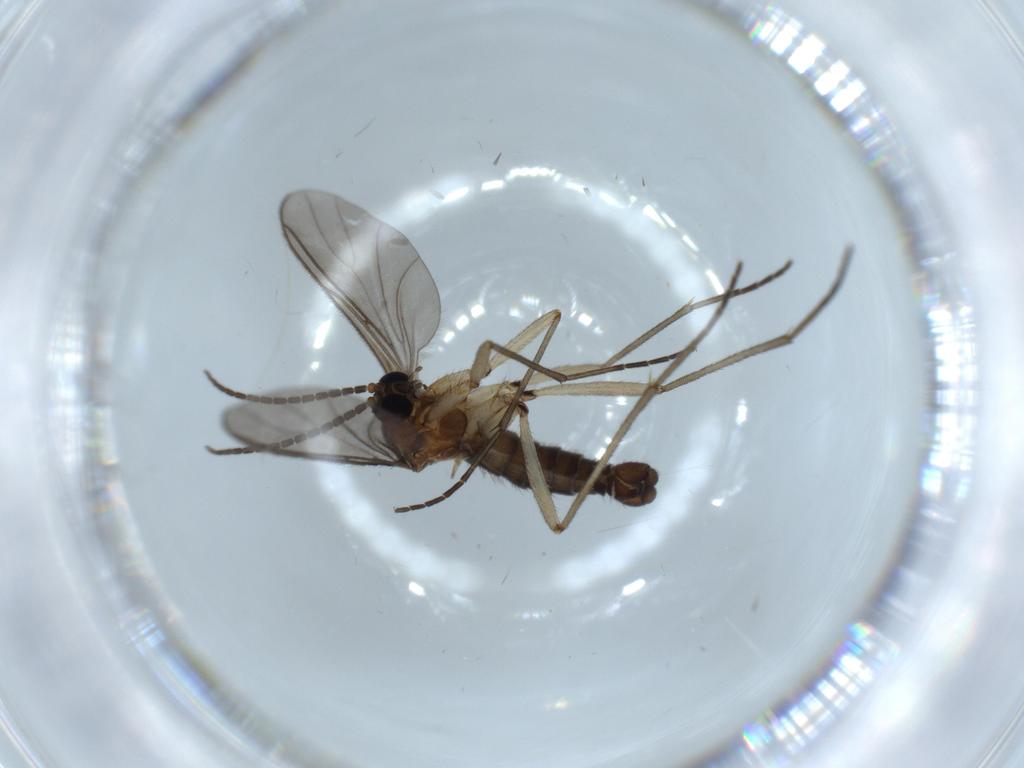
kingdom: Animalia
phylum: Arthropoda
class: Insecta
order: Diptera
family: Sciaridae
